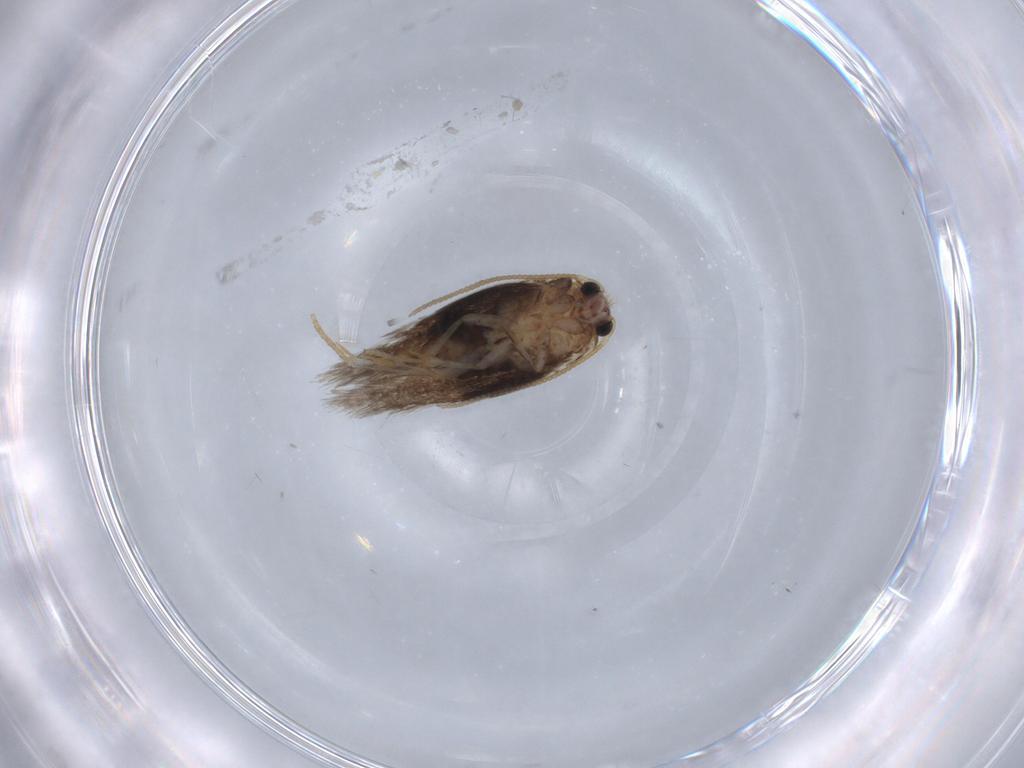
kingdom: Animalia
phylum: Arthropoda
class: Insecta
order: Lepidoptera
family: Nepticulidae
